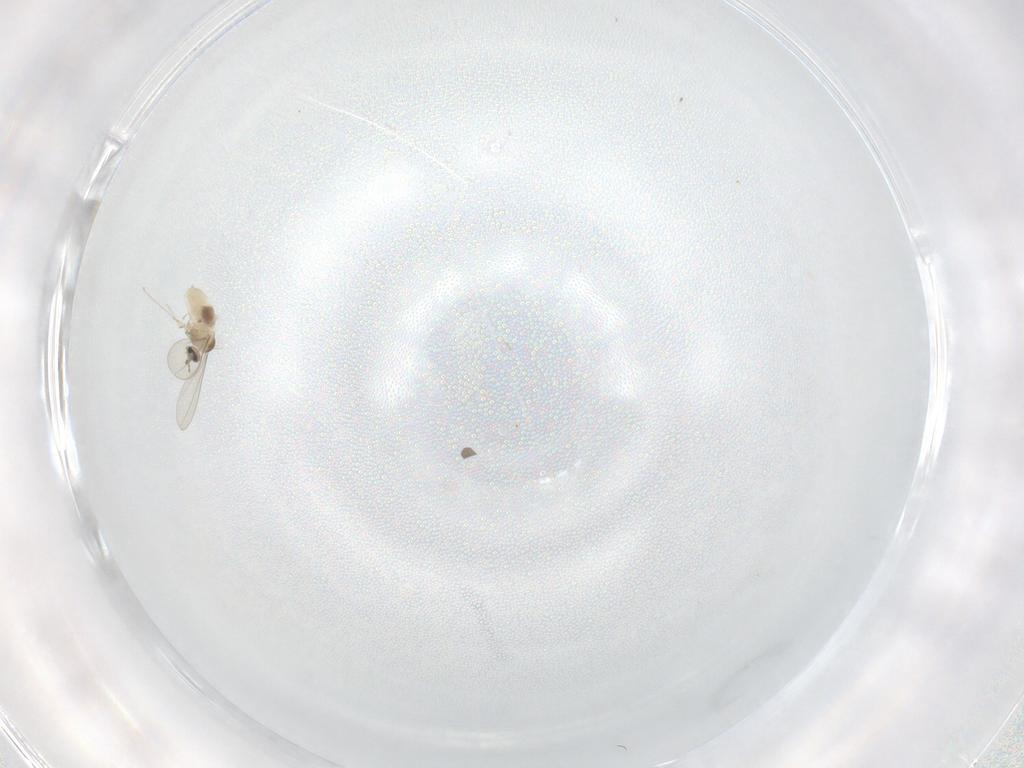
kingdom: Animalia
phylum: Arthropoda
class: Insecta
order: Diptera
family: Cecidomyiidae
